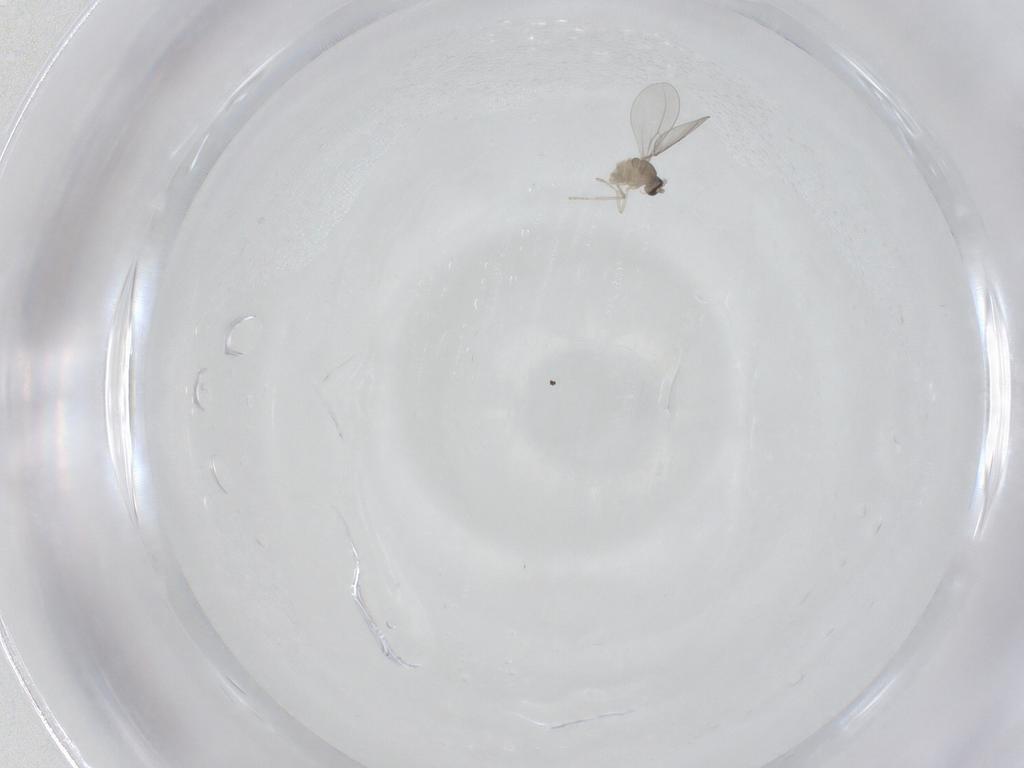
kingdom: Animalia
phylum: Arthropoda
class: Insecta
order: Diptera
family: Cecidomyiidae
